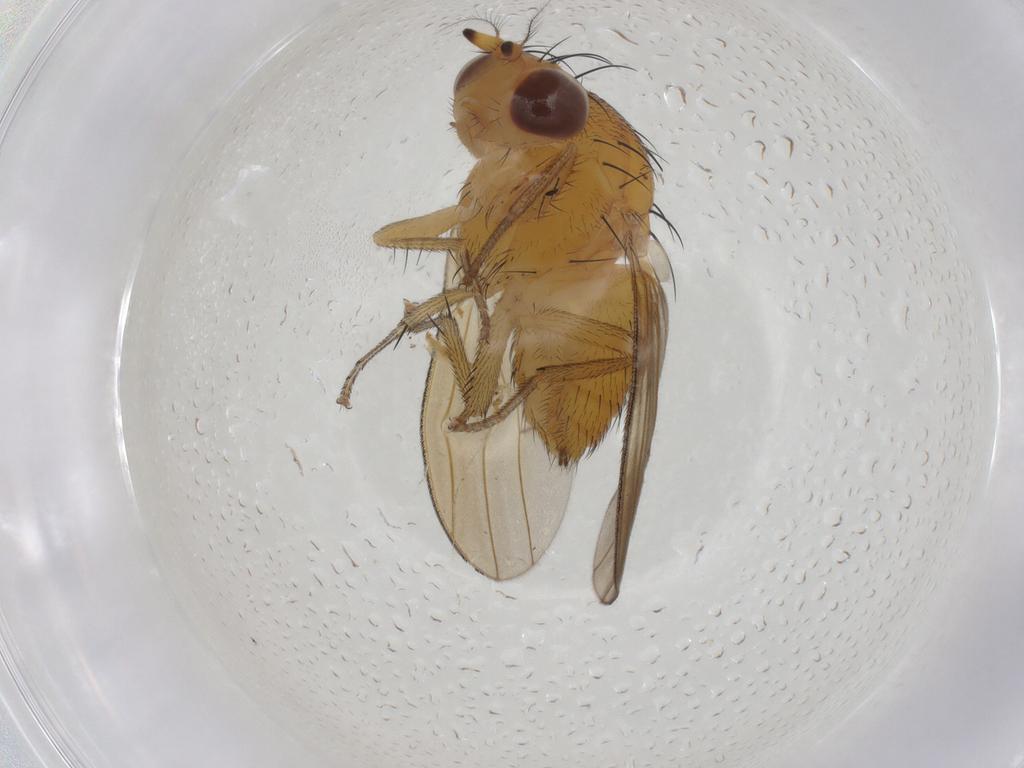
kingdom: Animalia
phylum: Arthropoda
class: Insecta
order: Diptera
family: Lauxaniidae
